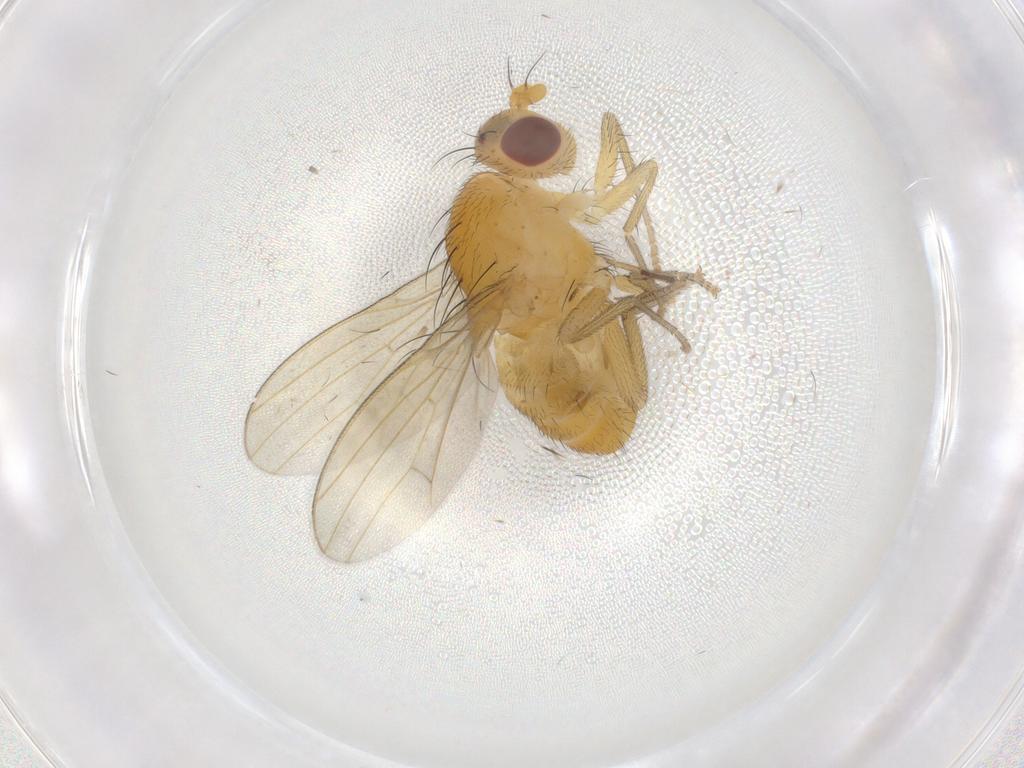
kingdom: Animalia
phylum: Arthropoda
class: Insecta
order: Diptera
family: Lauxaniidae
